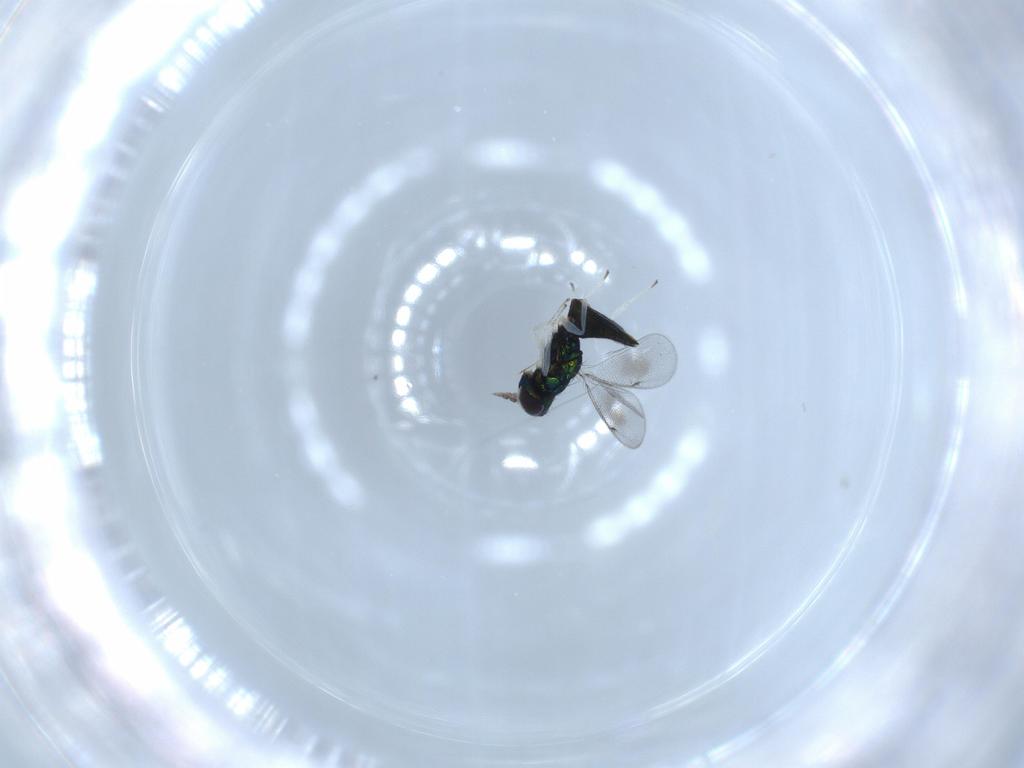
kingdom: Animalia
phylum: Arthropoda
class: Insecta
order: Hymenoptera
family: Eulophidae
